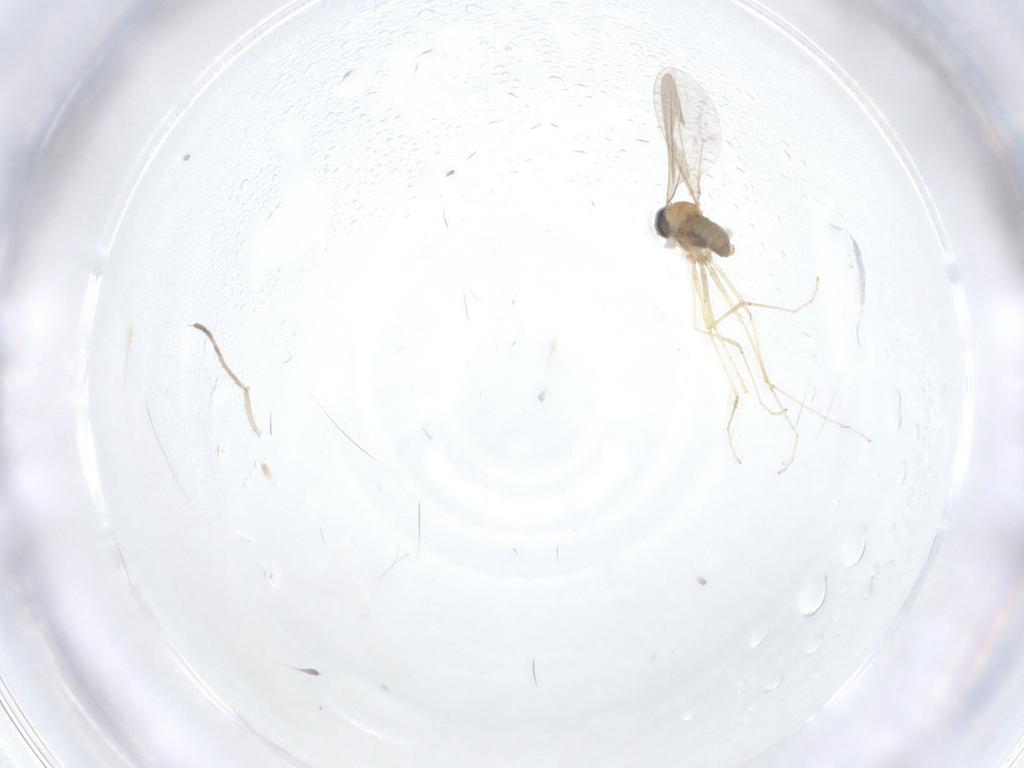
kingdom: Animalia
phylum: Arthropoda
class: Insecta
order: Diptera
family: Cecidomyiidae
